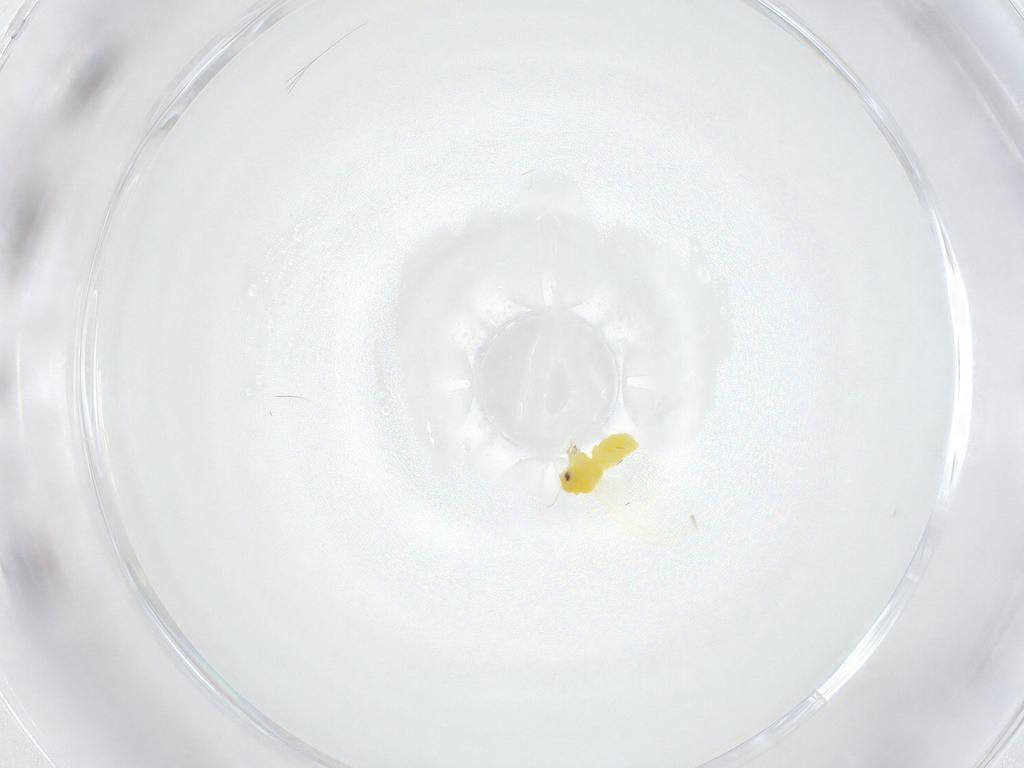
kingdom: Animalia
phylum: Arthropoda
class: Insecta
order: Hemiptera
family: Aleyrodidae
